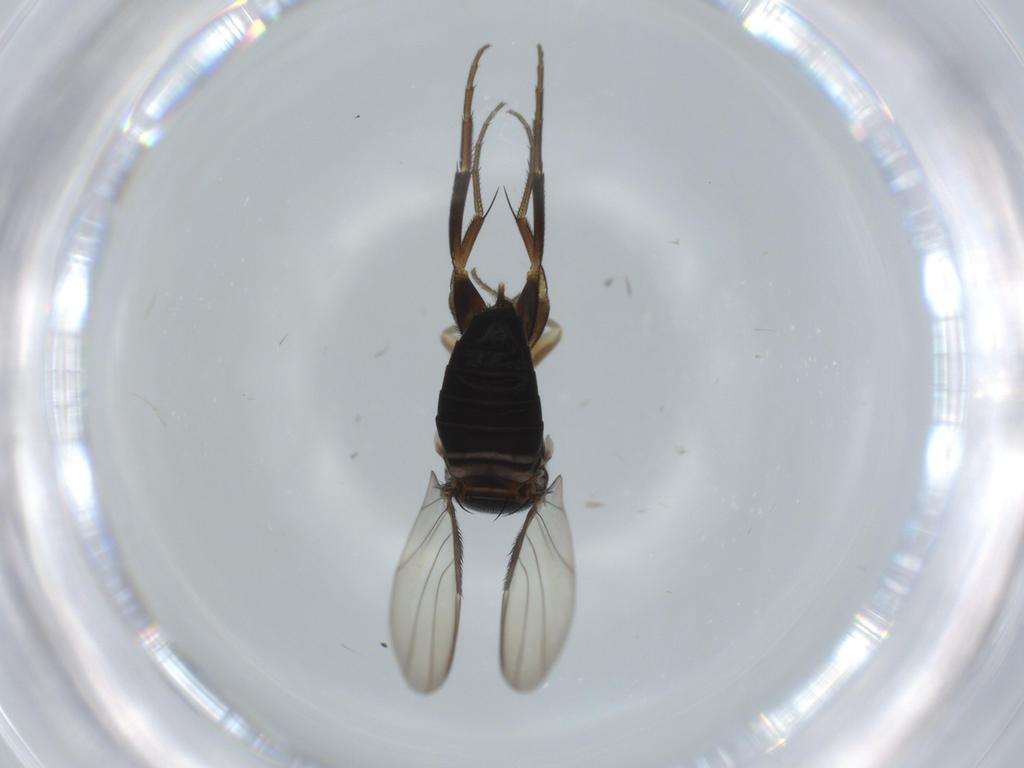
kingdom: Animalia
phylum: Arthropoda
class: Insecta
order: Diptera
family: Phoridae
